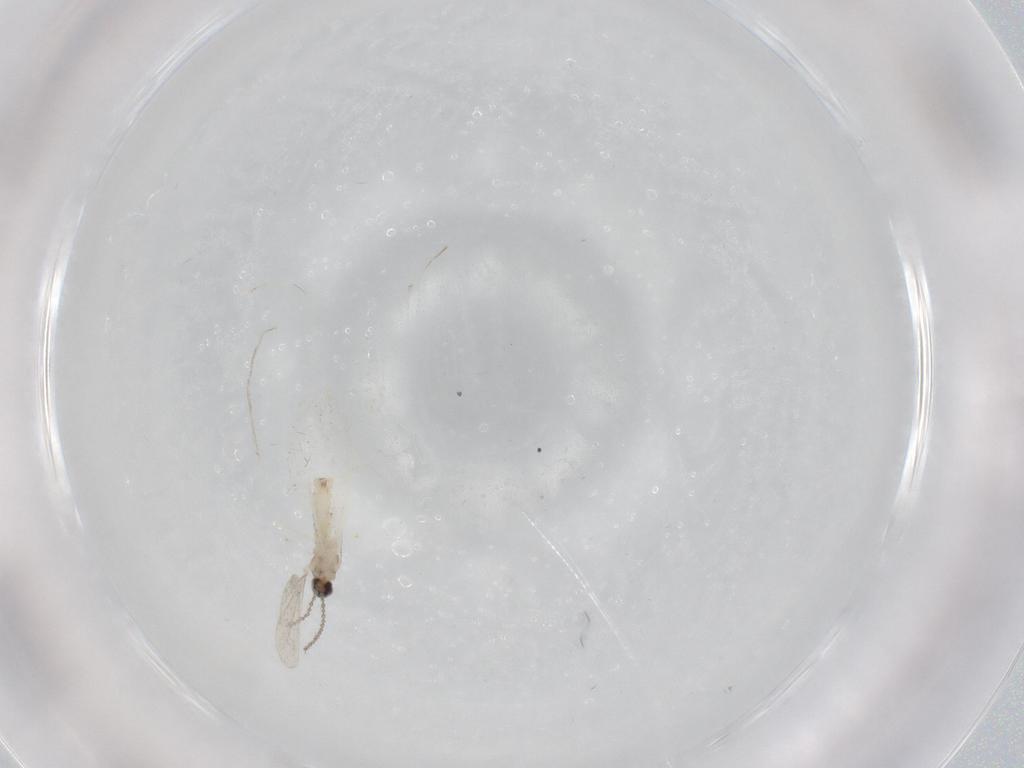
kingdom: Animalia
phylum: Arthropoda
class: Insecta
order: Diptera
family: Cecidomyiidae
